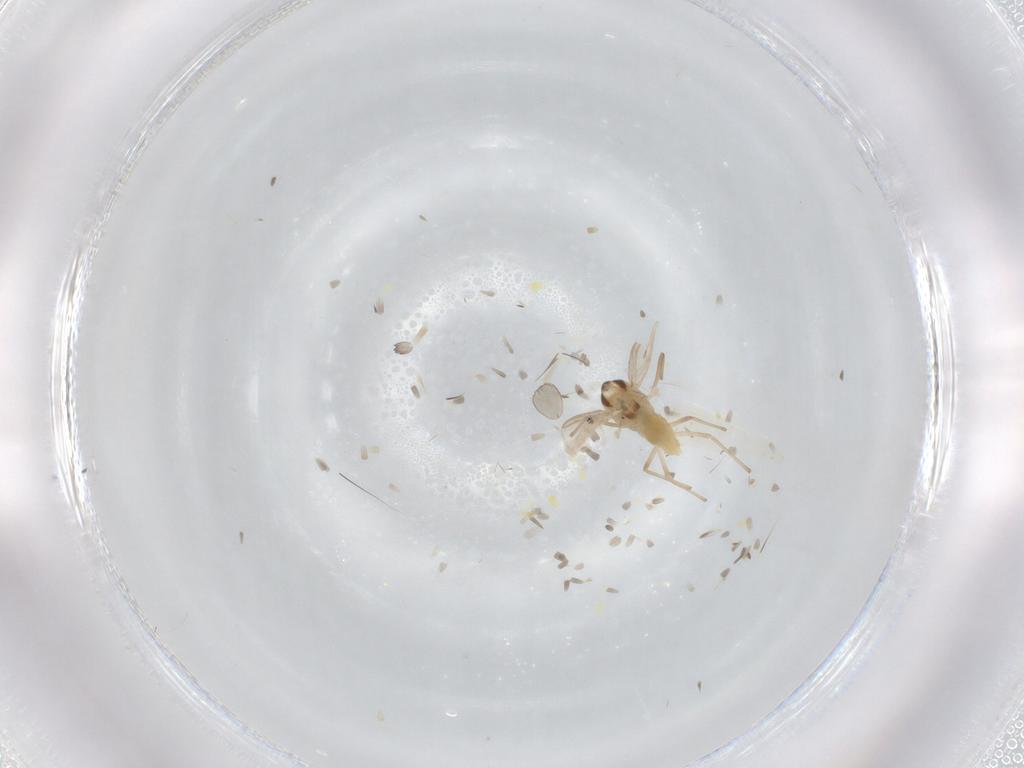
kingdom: Animalia
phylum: Arthropoda
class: Insecta
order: Diptera
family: Chironomidae
